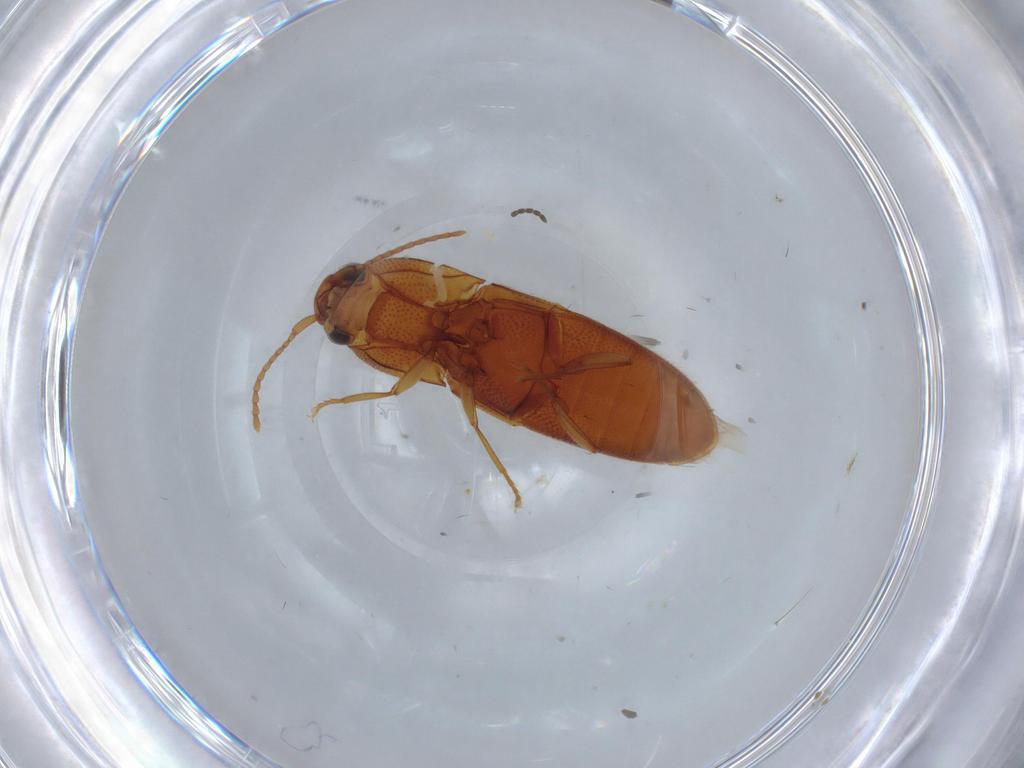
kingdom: Animalia
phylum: Arthropoda
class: Insecta
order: Coleoptera
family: Elateridae
